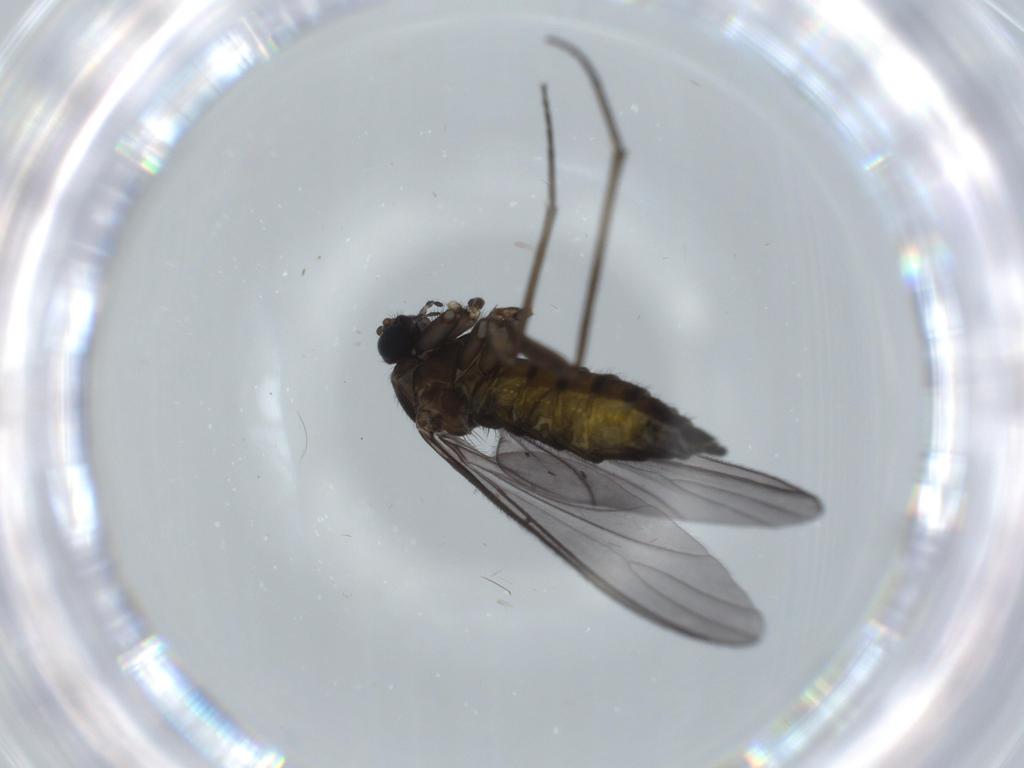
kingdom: Animalia
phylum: Arthropoda
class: Insecta
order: Diptera
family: Sciaridae
